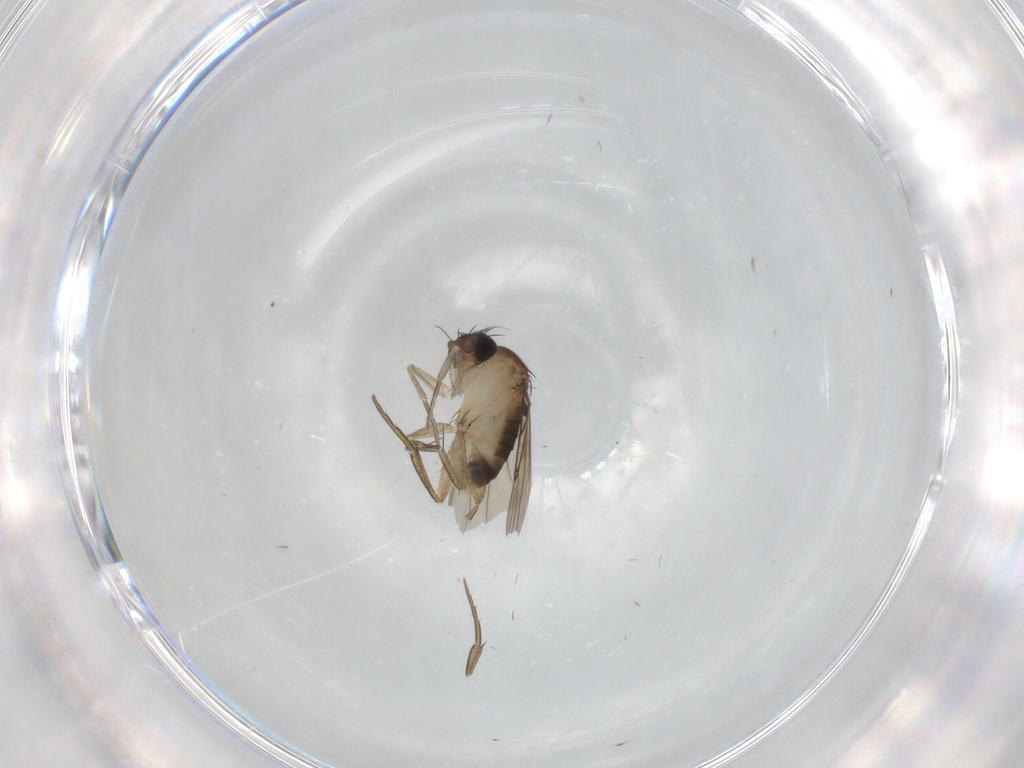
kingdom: Animalia
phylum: Arthropoda
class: Insecta
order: Diptera
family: Phoridae
